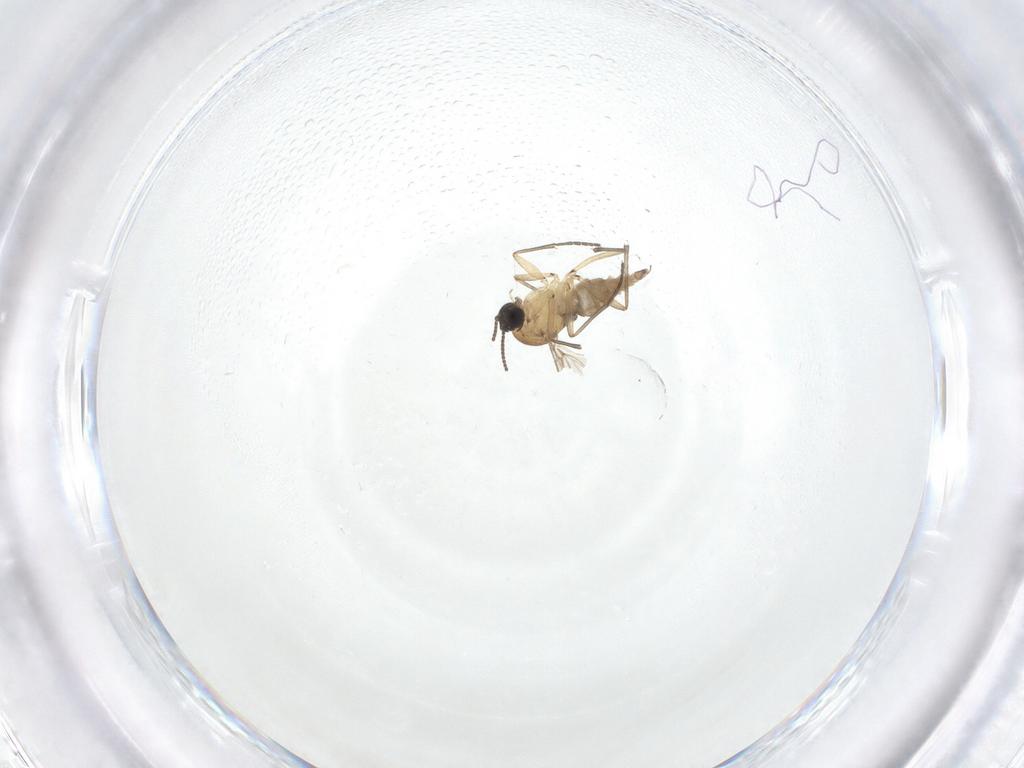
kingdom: Animalia
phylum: Arthropoda
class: Insecta
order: Diptera
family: Sciaridae
